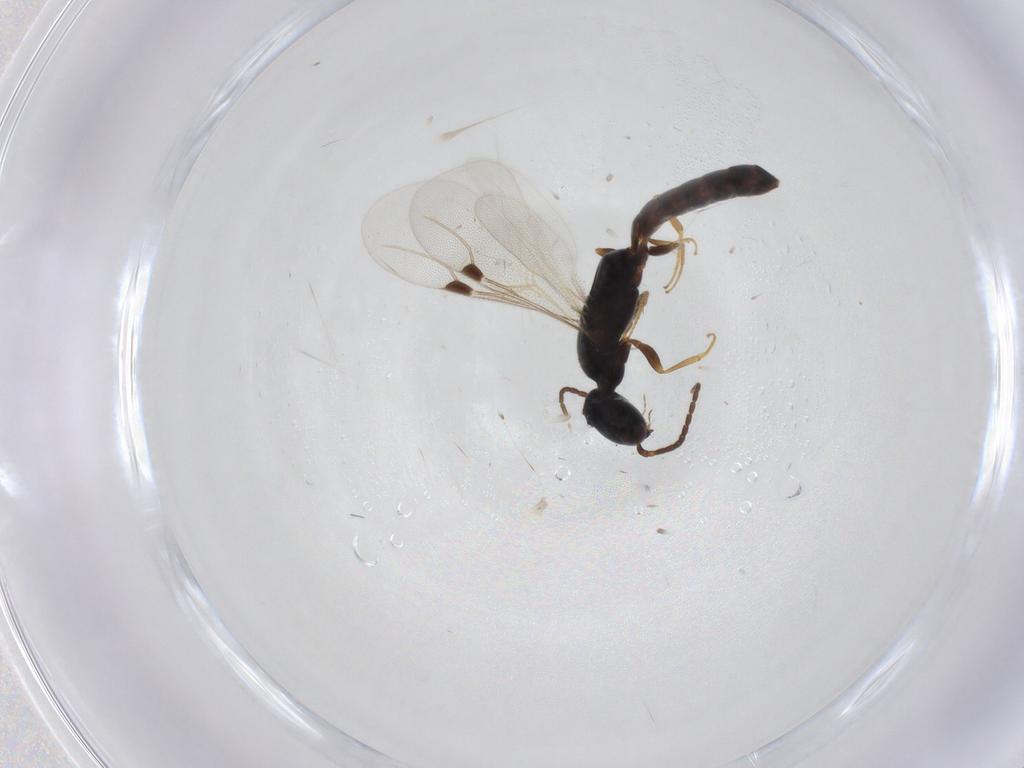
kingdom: Animalia
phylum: Arthropoda
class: Insecta
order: Hymenoptera
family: Bethylidae
